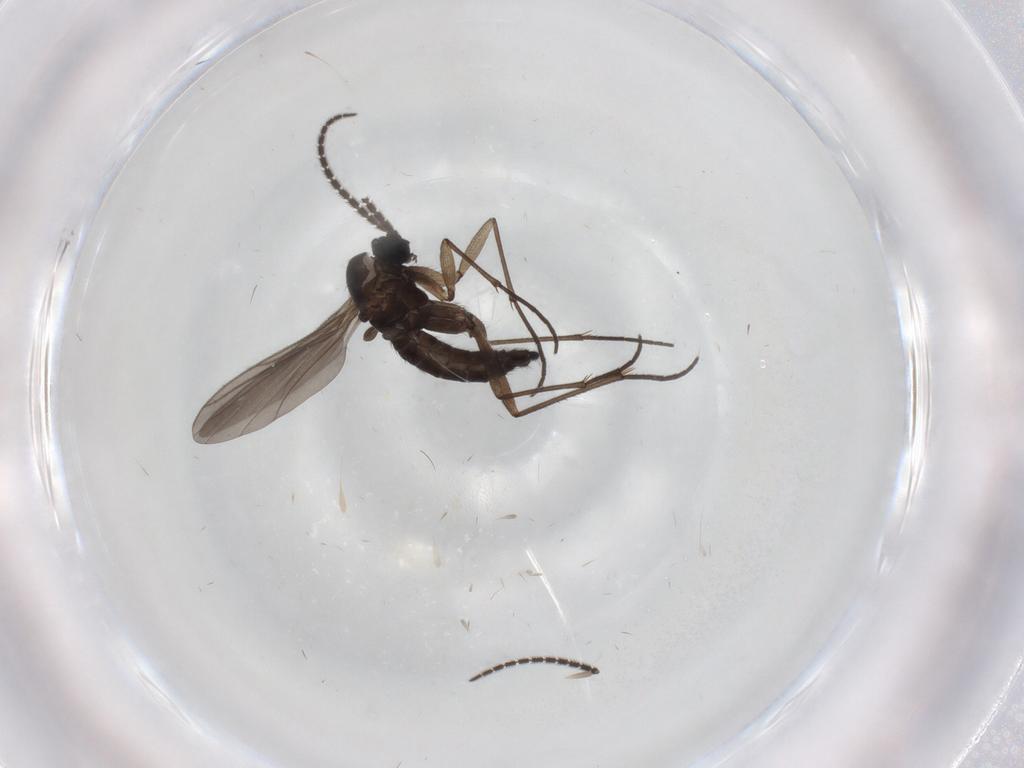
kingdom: Animalia
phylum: Arthropoda
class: Insecta
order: Diptera
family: Sciaridae
